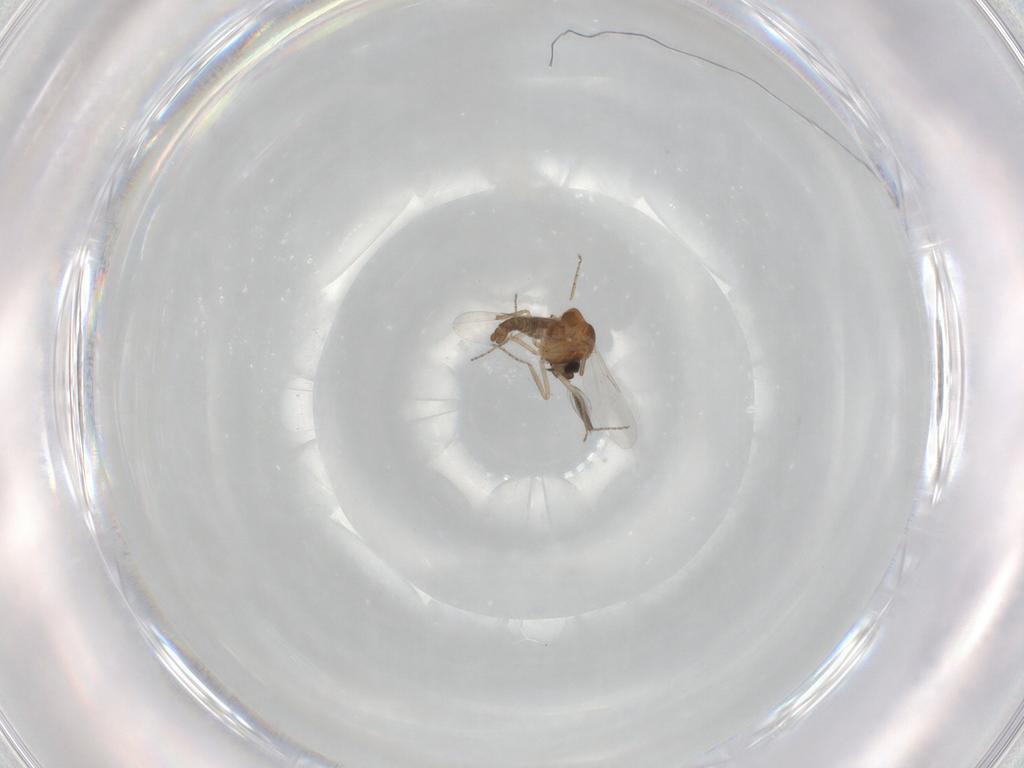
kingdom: Animalia
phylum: Arthropoda
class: Insecta
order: Diptera
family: Ceratopogonidae
